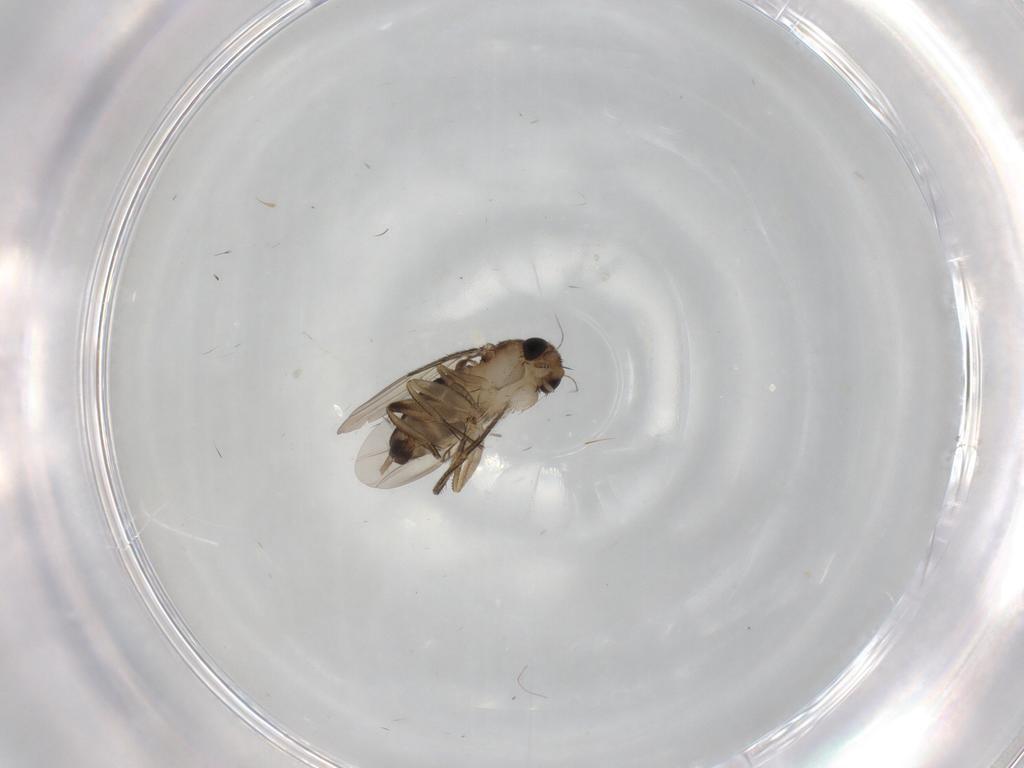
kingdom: Animalia
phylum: Arthropoda
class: Insecta
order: Diptera
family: Phoridae
